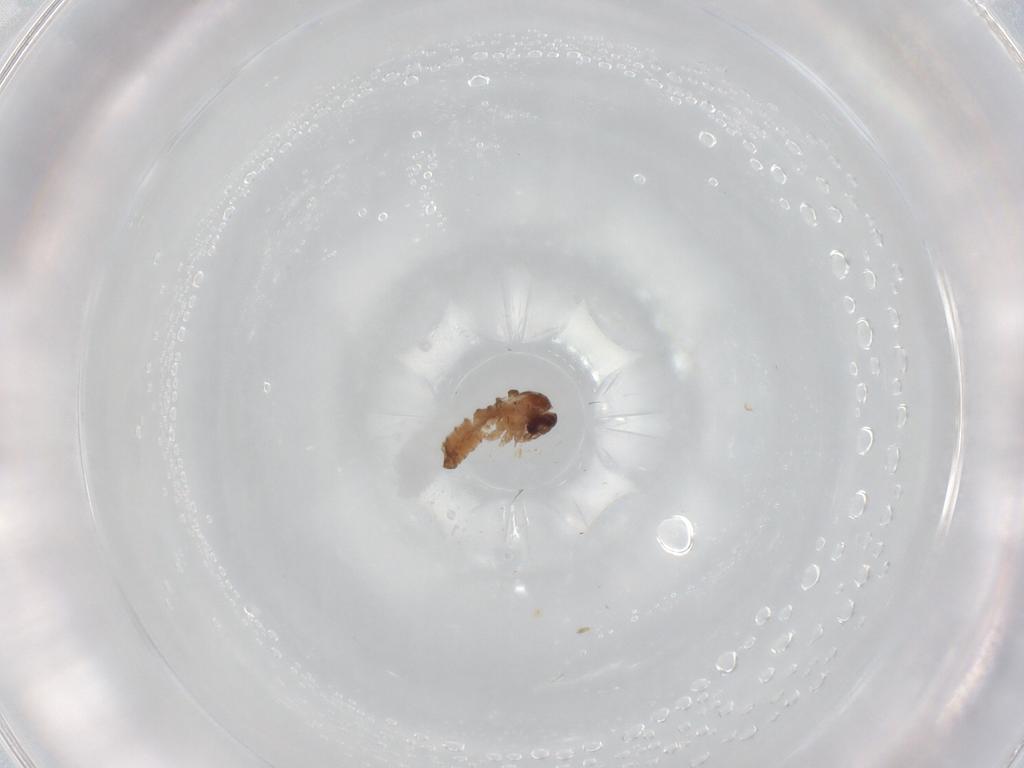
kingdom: Animalia
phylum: Arthropoda
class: Insecta
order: Diptera
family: Psychodidae
